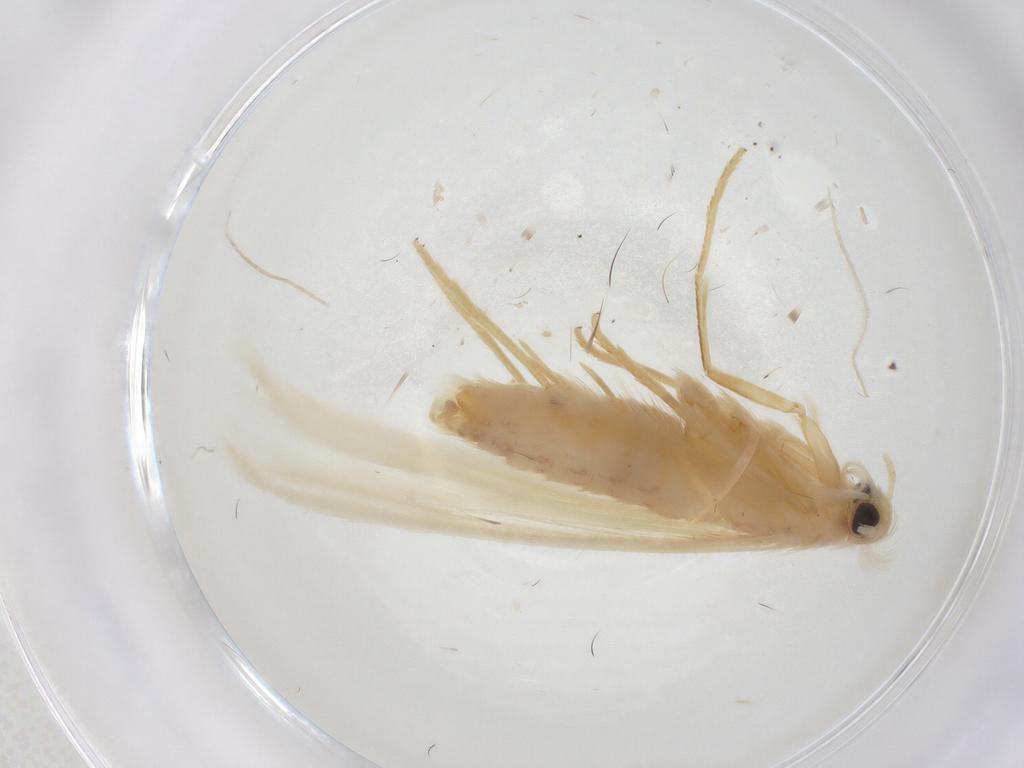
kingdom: Animalia
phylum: Arthropoda
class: Insecta
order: Lepidoptera
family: Coleophoridae
